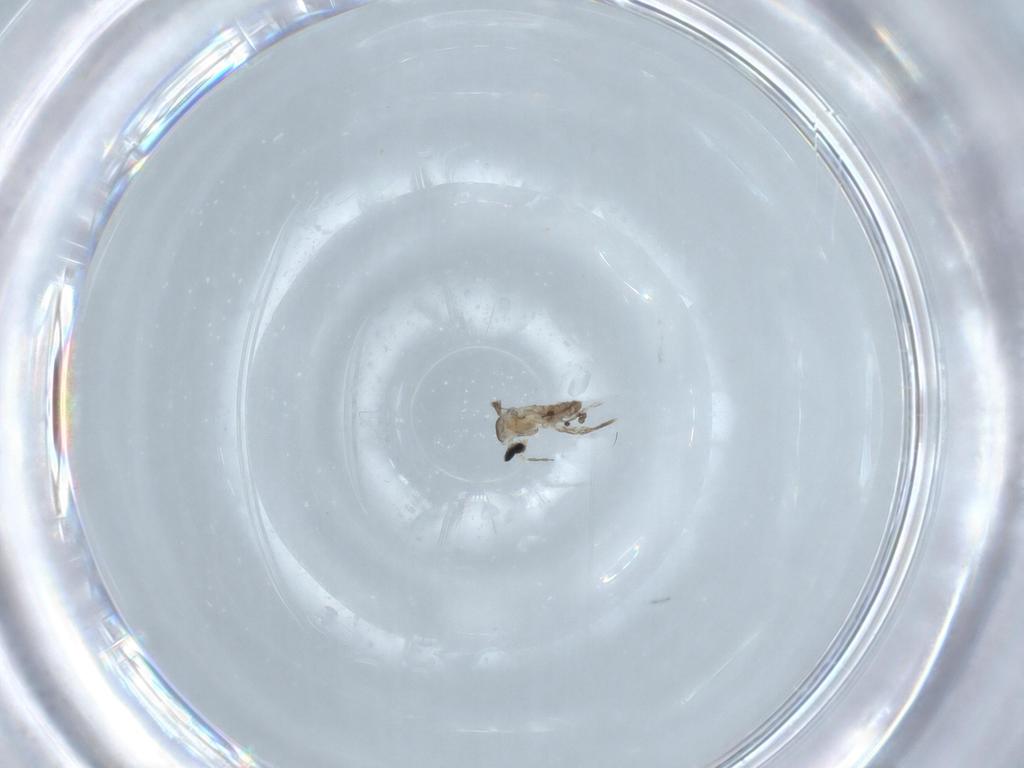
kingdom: Animalia
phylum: Arthropoda
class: Insecta
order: Diptera
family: Cecidomyiidae
